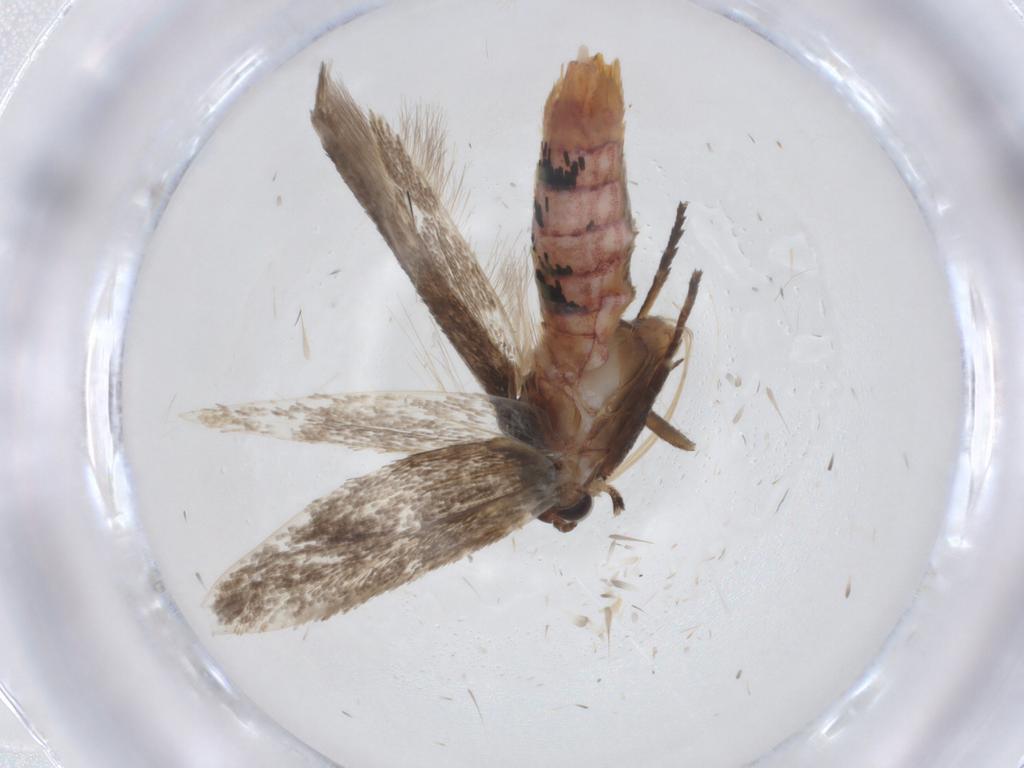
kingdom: Animalia
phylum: Arthropoda
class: Insecta
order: Lepidoptera
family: Cosmopterigidae
